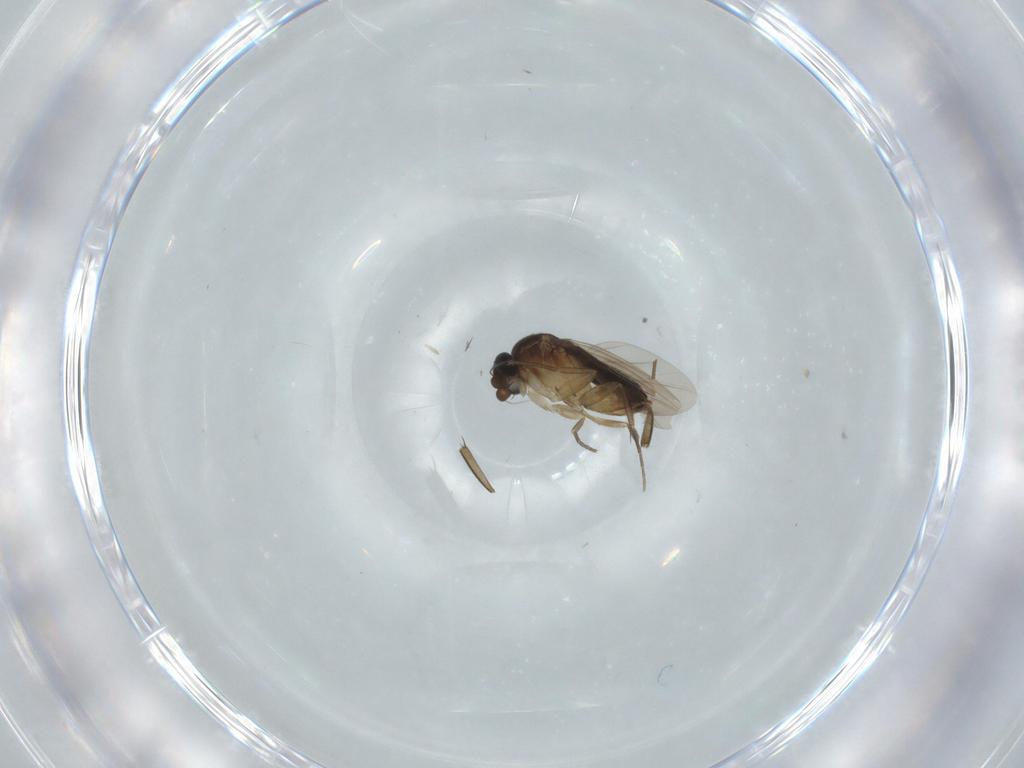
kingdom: Animalia
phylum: Arthropoda
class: Insecta
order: Diptera
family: Phoridae
